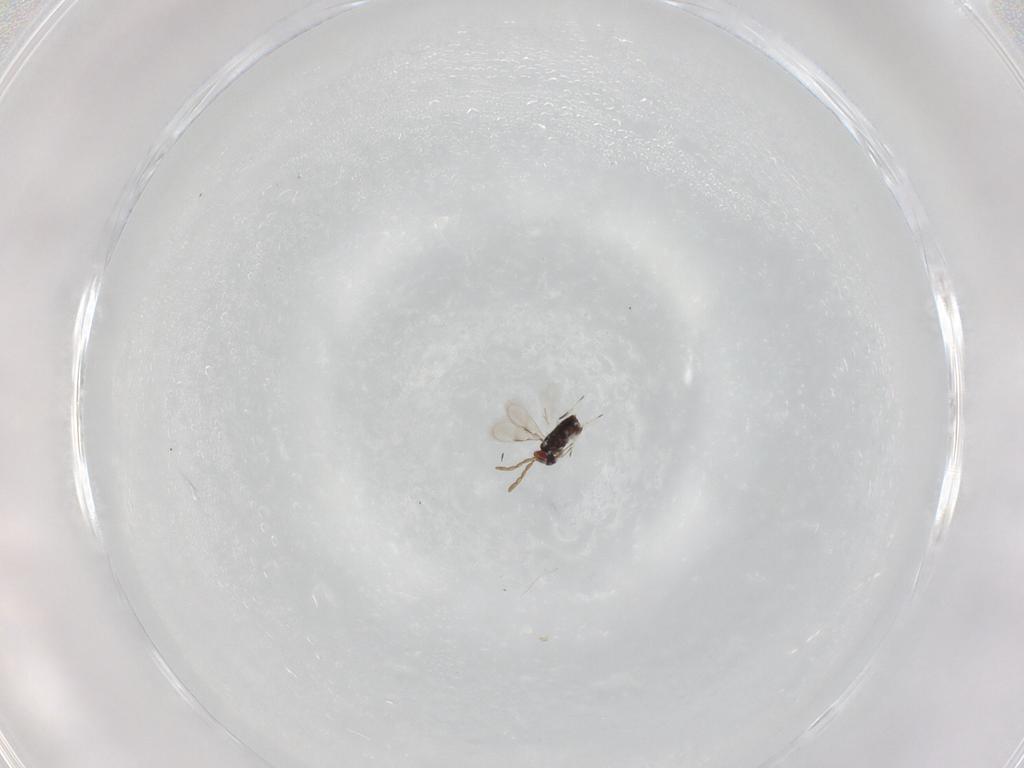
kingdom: Animalia
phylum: Arthropoda
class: Insecta
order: Hymenoptera
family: Azotidae
